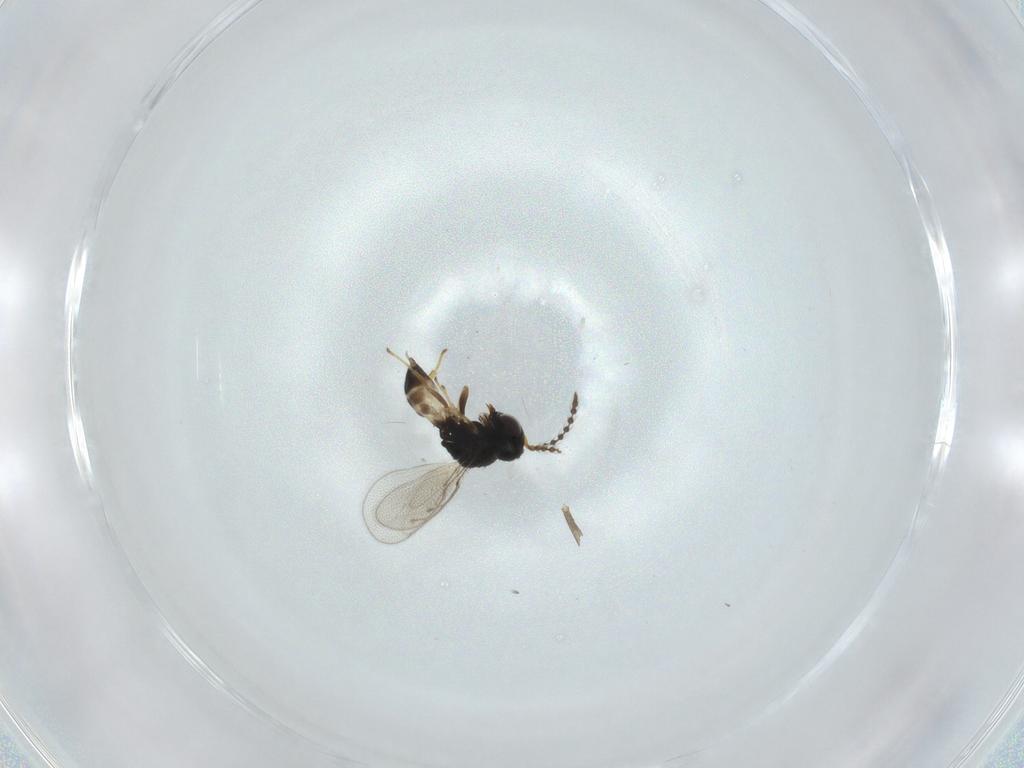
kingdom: Animalia
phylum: Arthropoda
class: Insecta
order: Hymenoptera
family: Pteromalidae
